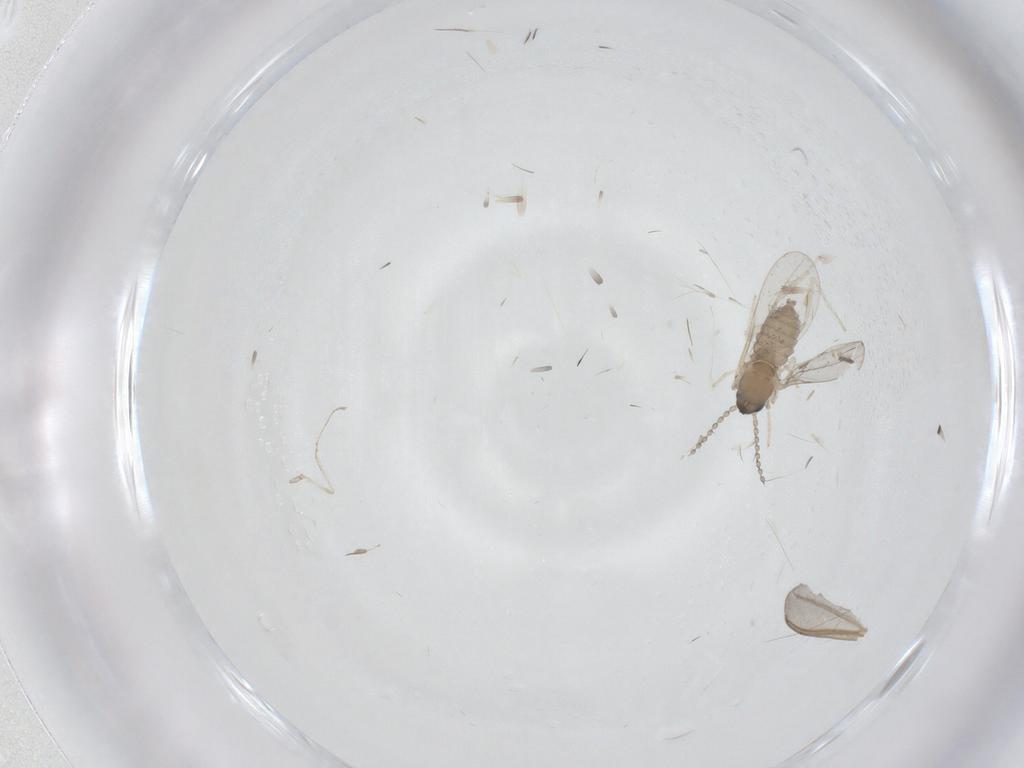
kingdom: Animalia
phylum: Arthropoda
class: Insecta
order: Diptera
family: Cecidomyiidae
